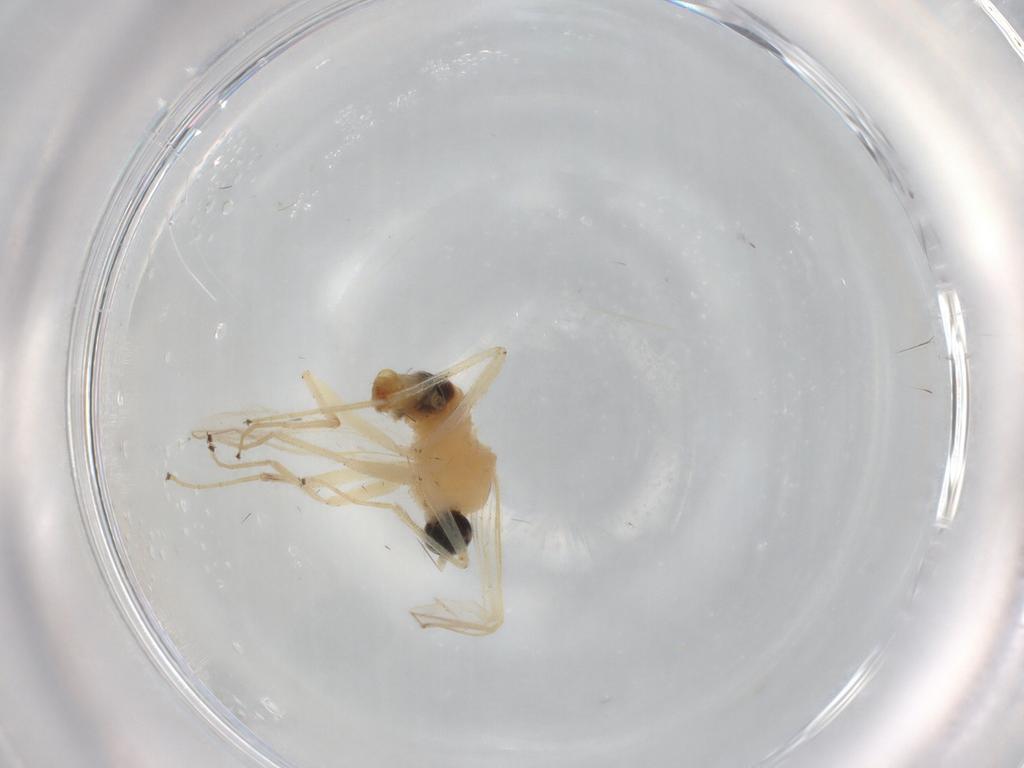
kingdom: Animalia
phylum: Arthropoda
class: Insecta
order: Diptera
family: Hybotidae
